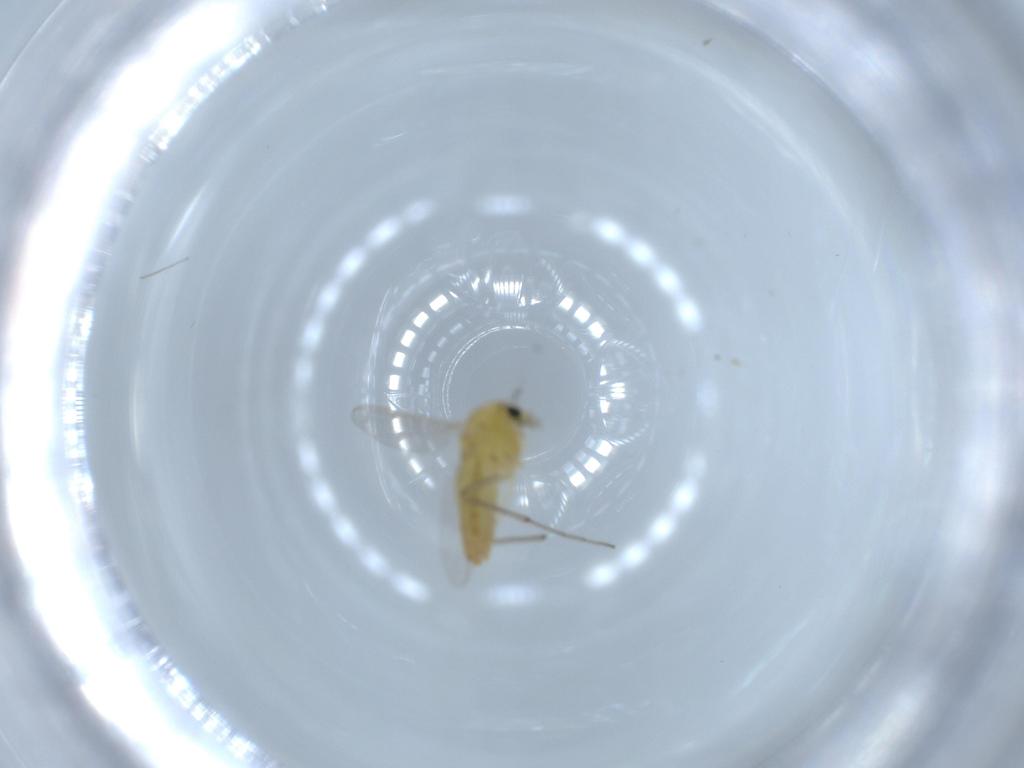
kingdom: Animalia
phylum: Arthropoda
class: Insecta
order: Diptera
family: Chironomidae
